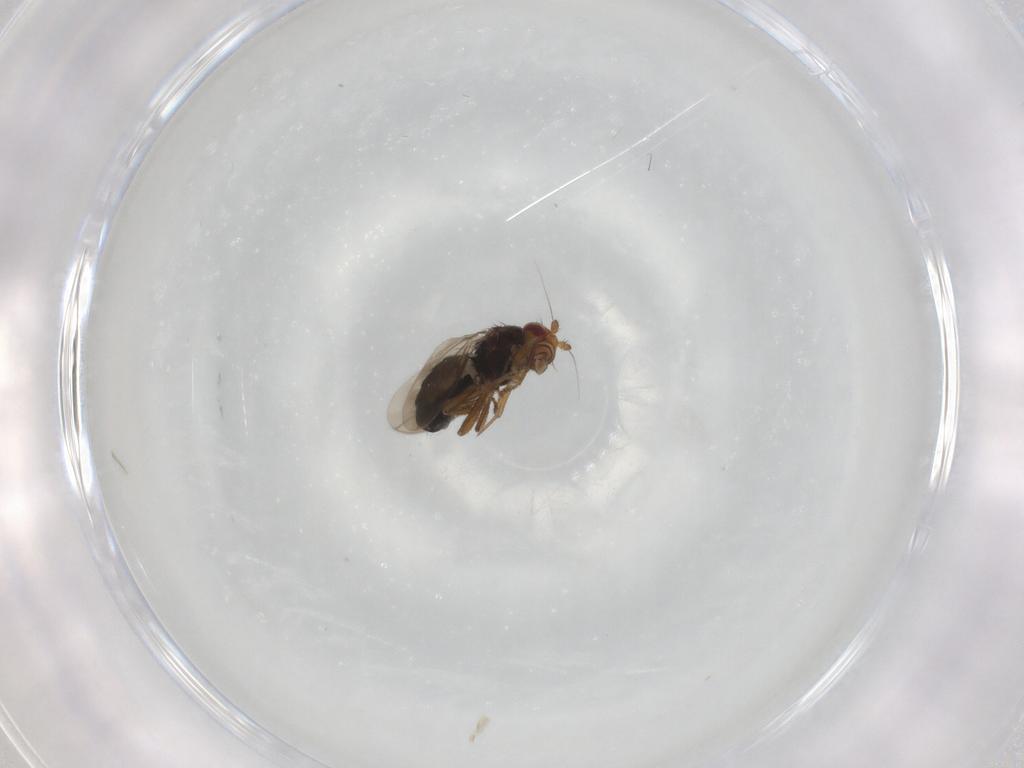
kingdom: Animalia
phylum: Arthropoda
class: Insecta
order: Diptera
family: Sphaeroceridae
